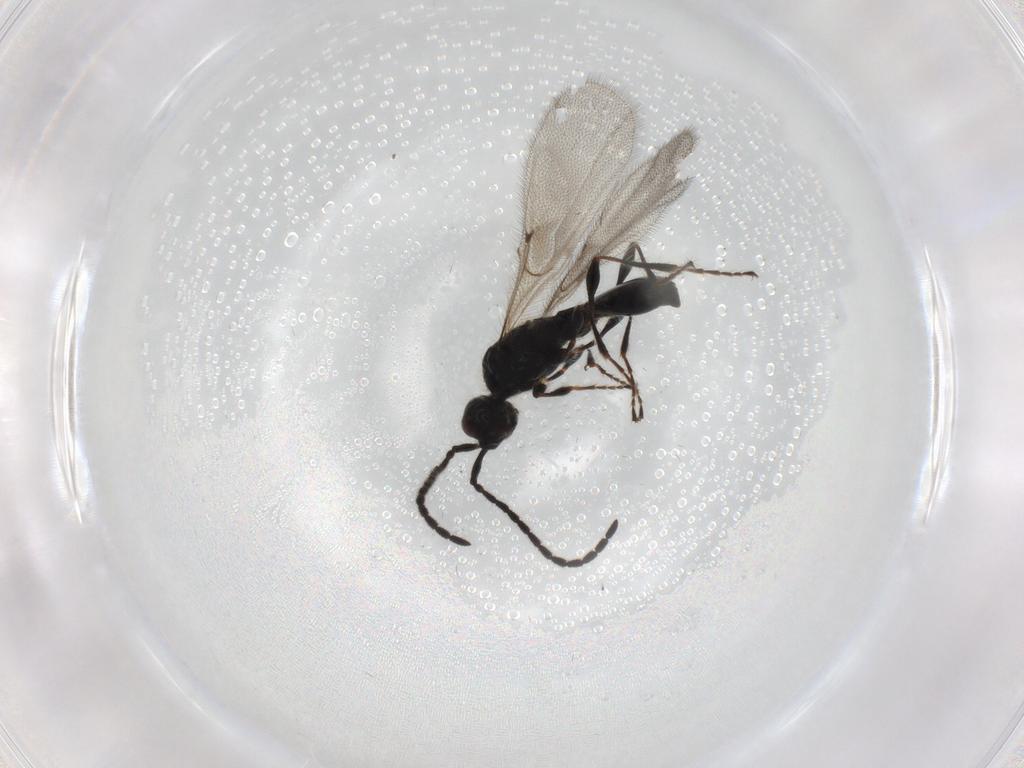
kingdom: Animalia
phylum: Arthropoda
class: Insecta
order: Hymenoptera
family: Diapriidae
